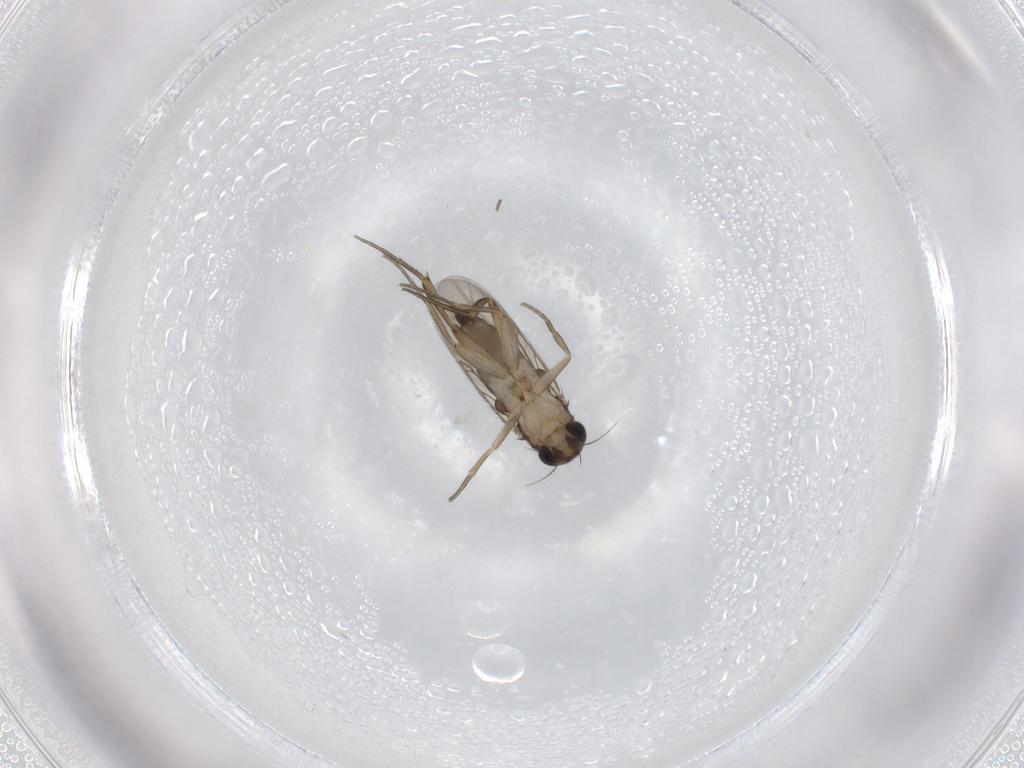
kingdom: Animalia
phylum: Arthropoda
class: Insecta
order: Diptera
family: Phoridae
